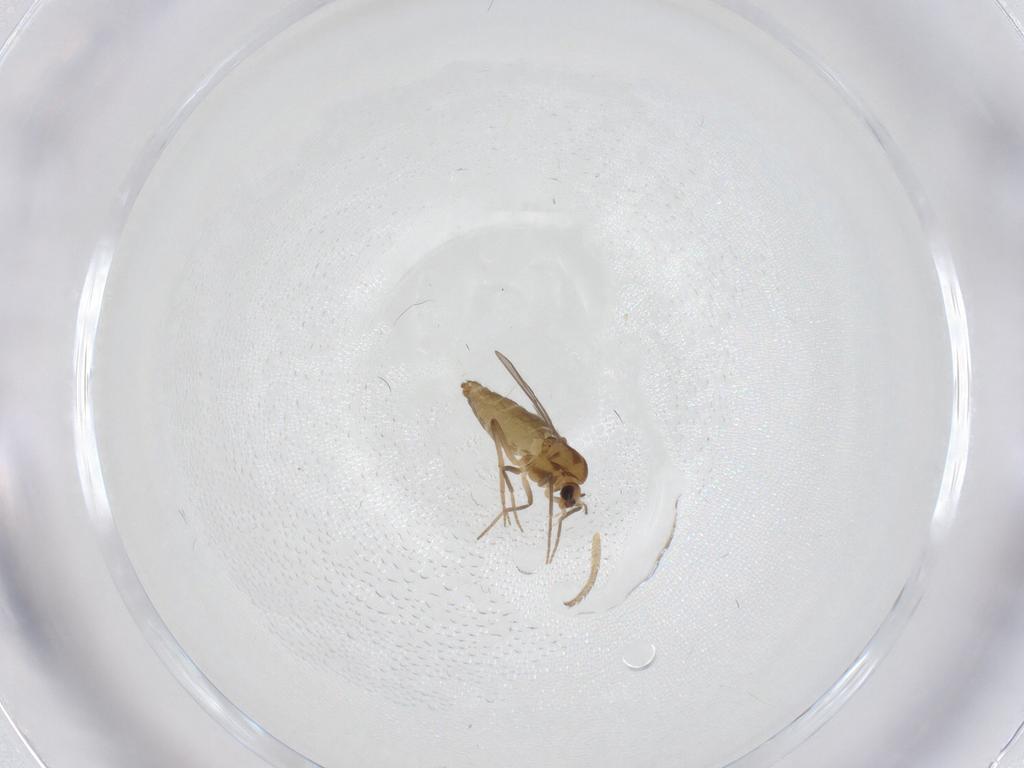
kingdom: Animalia
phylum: Arthropoda
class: Insecta
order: Diptera
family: Chironomidae
